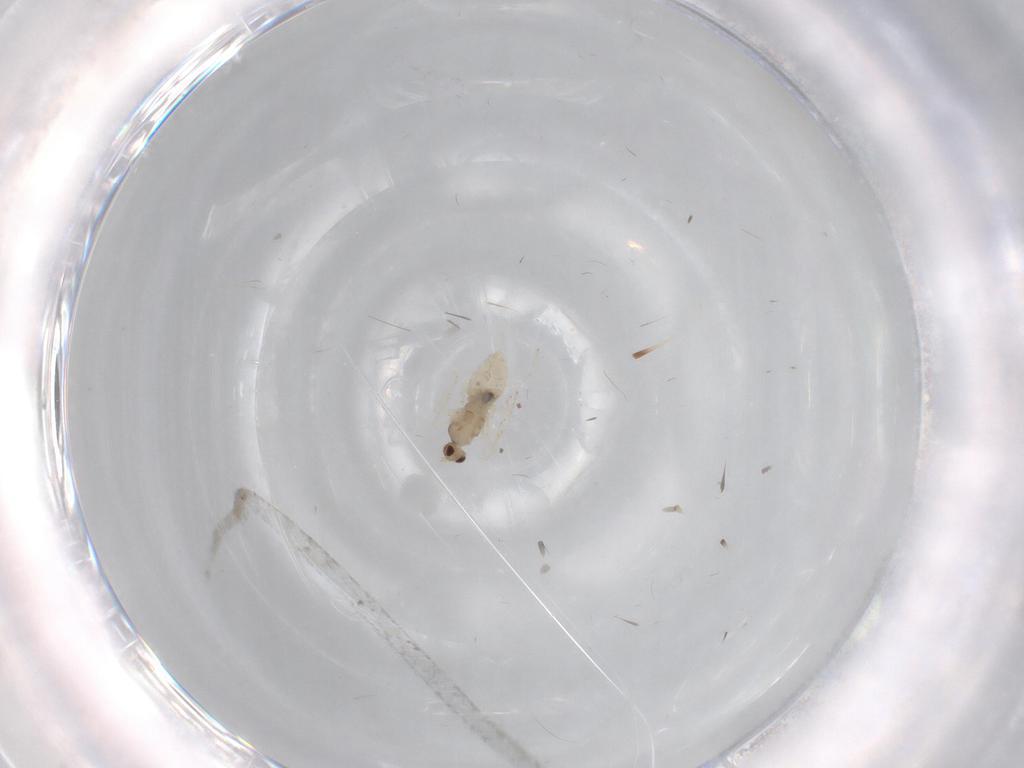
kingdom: Animalia
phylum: Arthropoda
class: Insecta
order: Diptera
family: Cecidomyiidae
